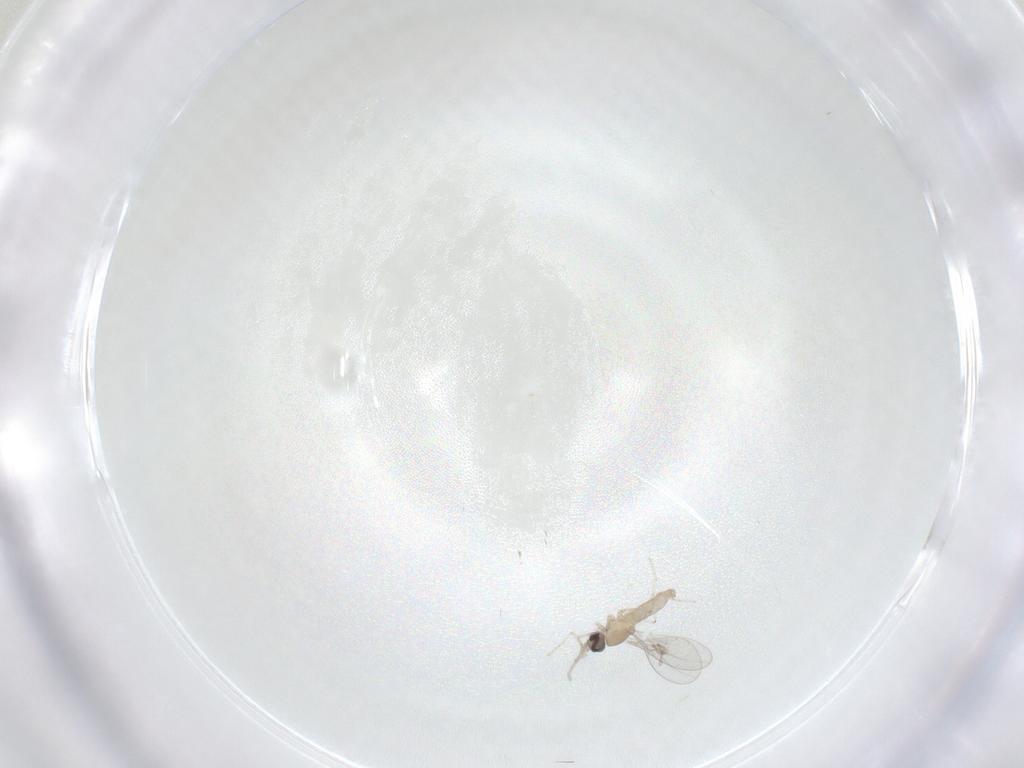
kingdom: Animalia
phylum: Arthropoda
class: Insecta
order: Diptera
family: Cecidomyiidae
